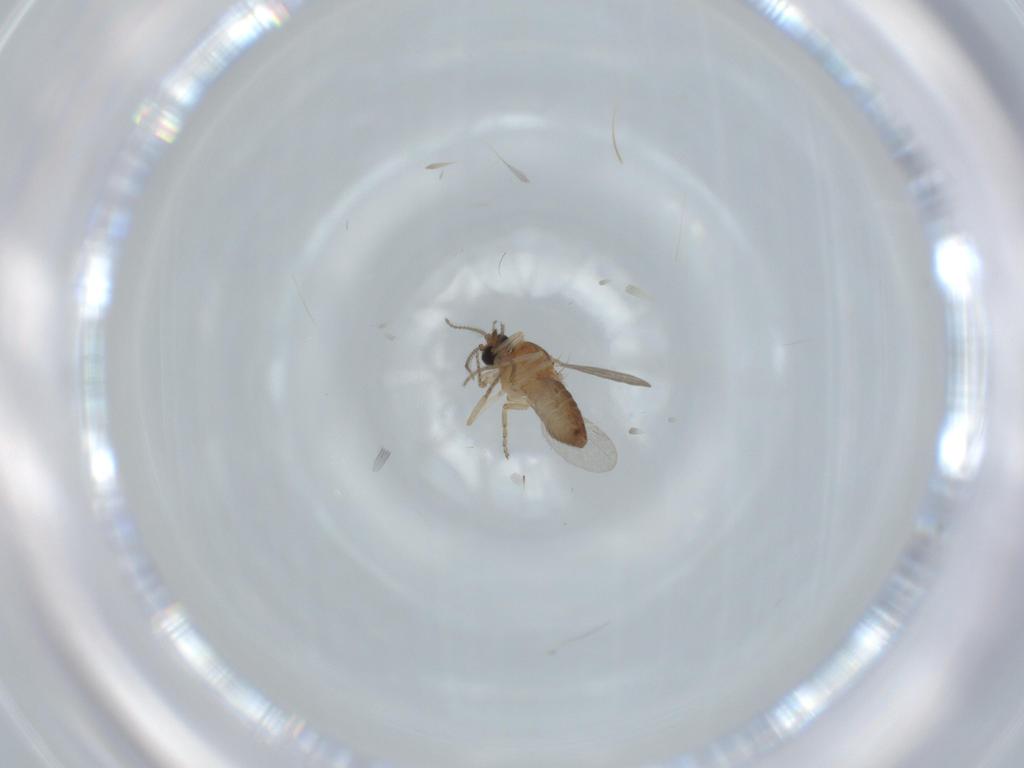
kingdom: Animalia
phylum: Arthropoda
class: Insecta
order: Diptera
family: Ceratopogonidae
